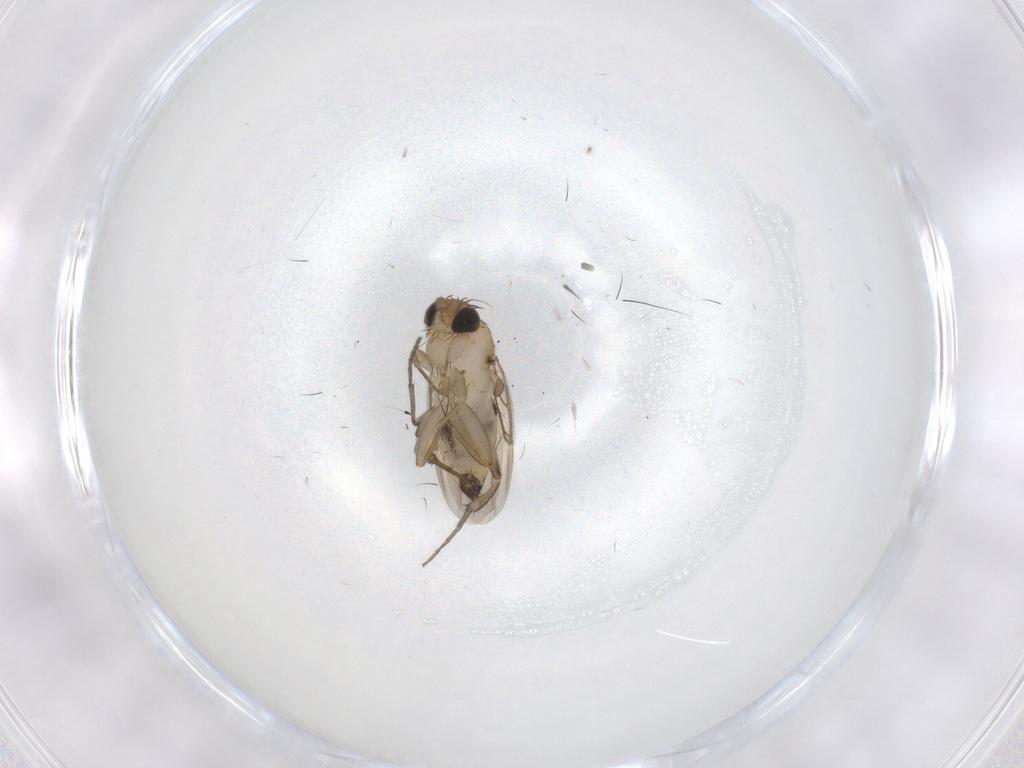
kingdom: Animalia
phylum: Arthropoda
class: Insecta
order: Diptera
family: Phoridae
